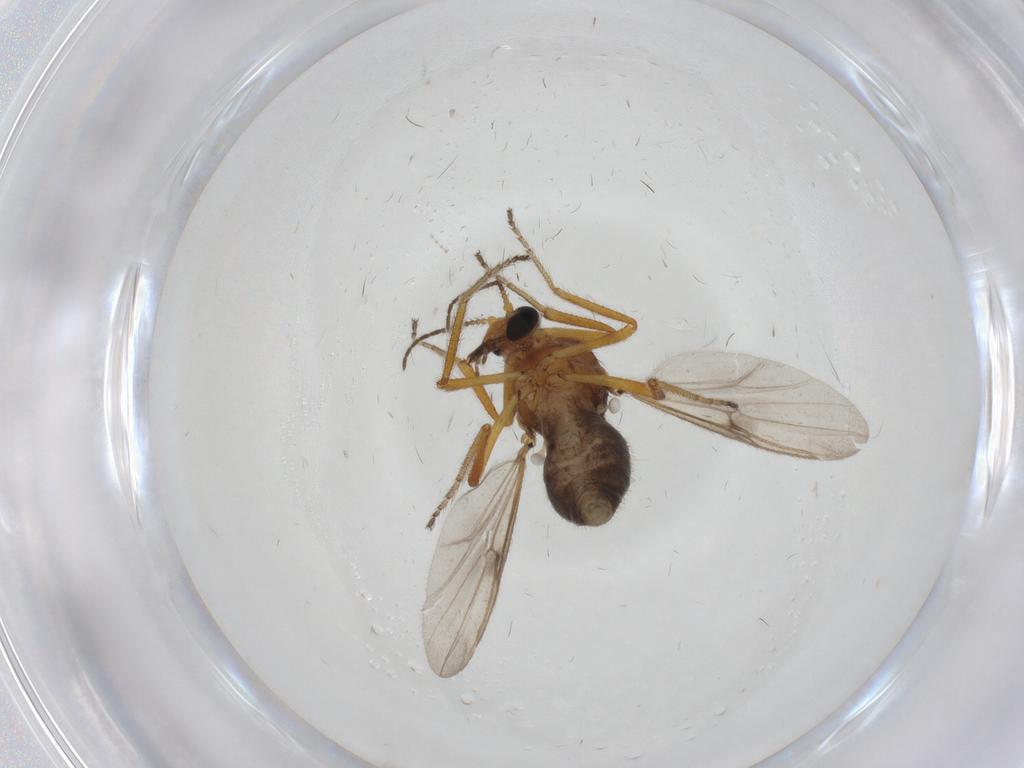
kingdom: Animalia
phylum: Arthropoda
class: Insecta
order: Diptera
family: Ceratopogonidae
